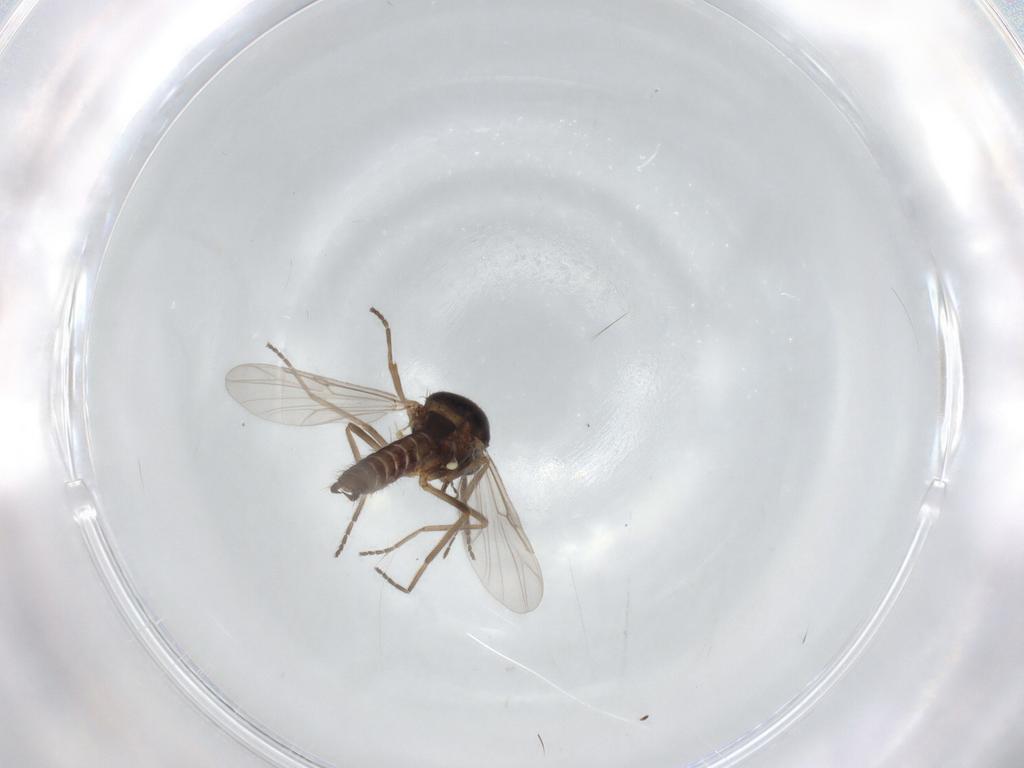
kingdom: Animalia
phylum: Arthropoda
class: Insecta
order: Diptera
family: Ceratopogonidae
